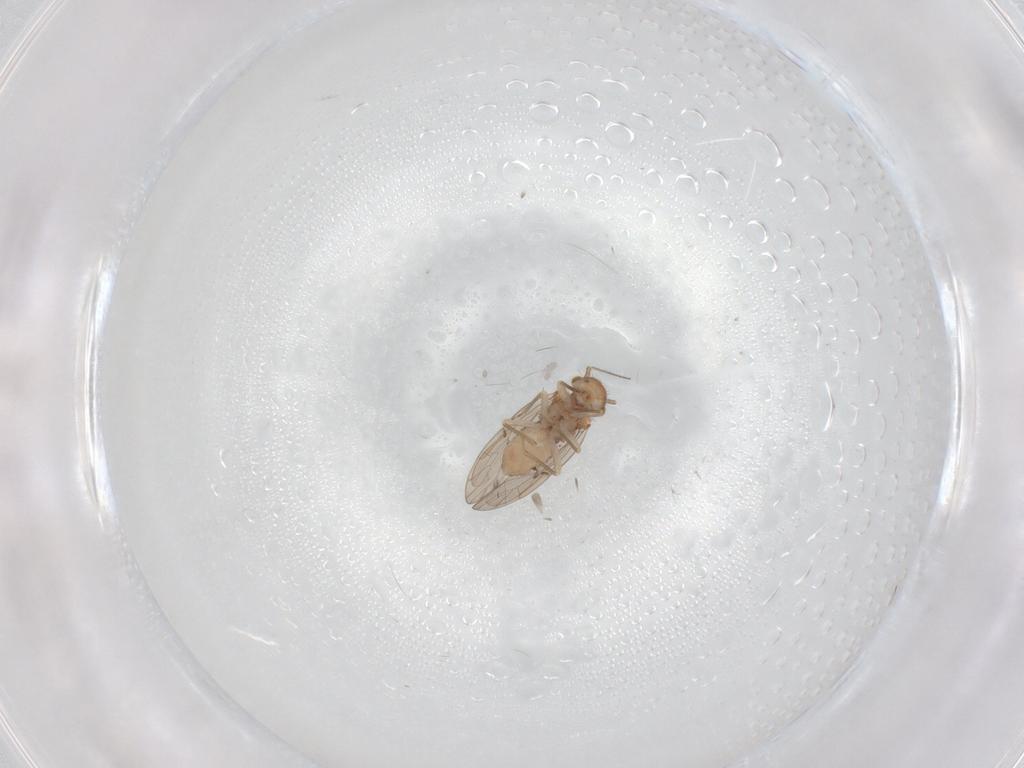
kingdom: Animalia
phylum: Arthropoda
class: Insecta
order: Psocodea
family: Ectopsocidae
